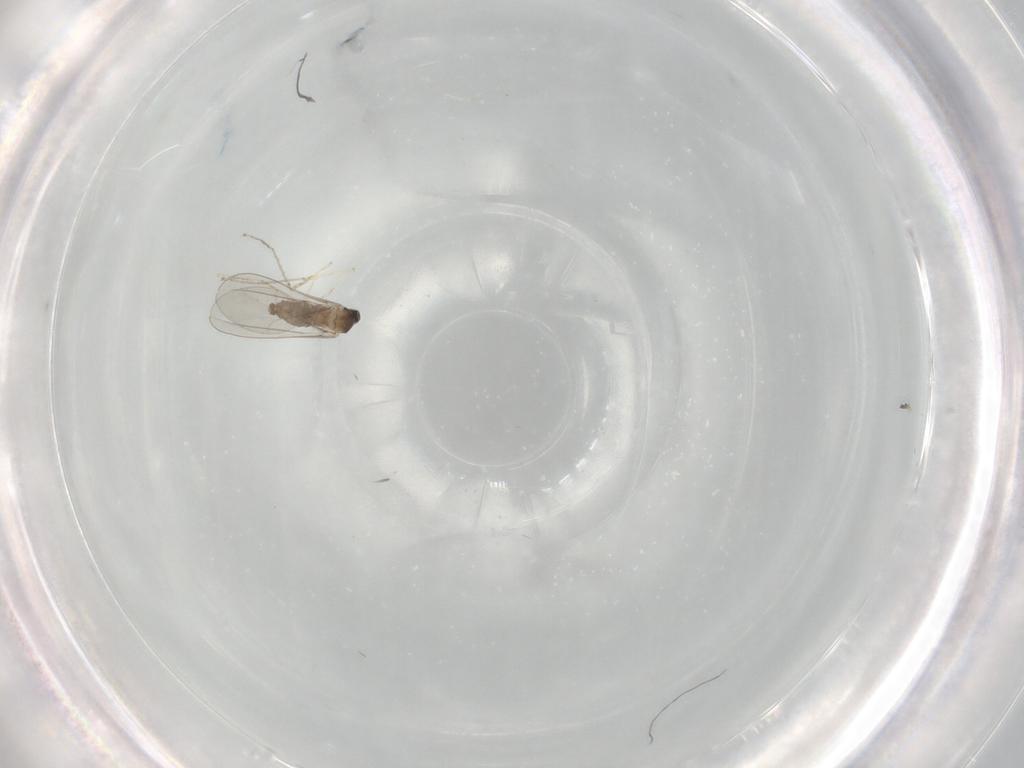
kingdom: Animalia
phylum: Arthropoda
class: Insecta
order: Diptera
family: Cecidomyiidae
